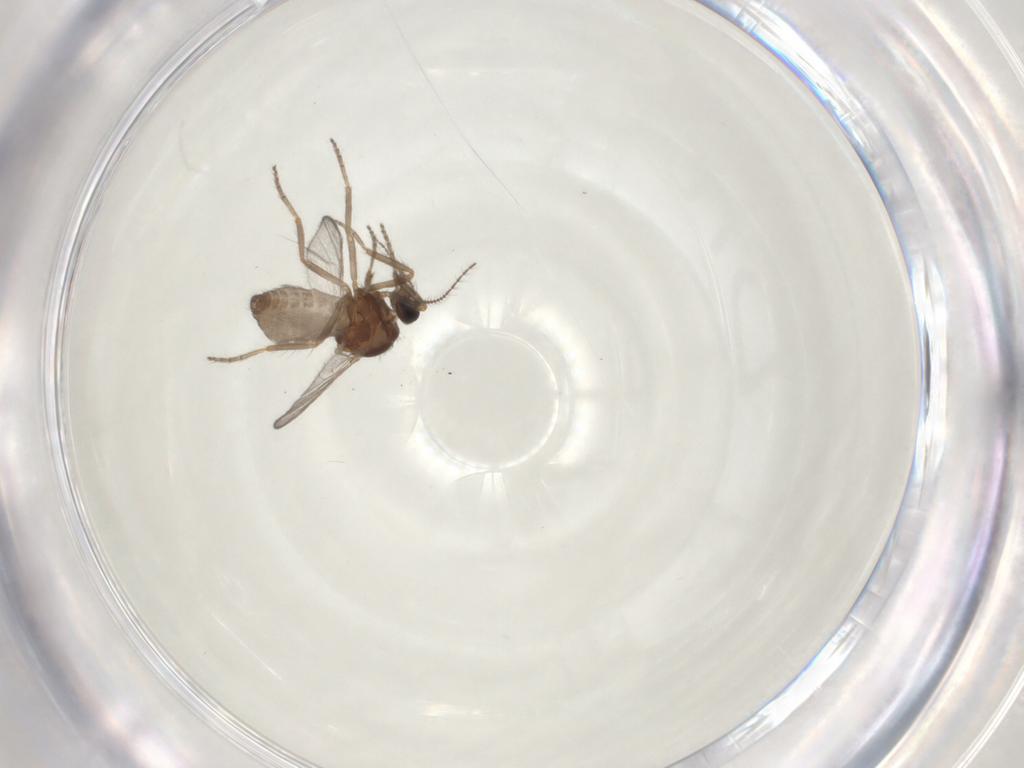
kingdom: Animalia
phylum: Arthropoda
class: Insecta
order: Diptera
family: Ceratopogonidae
